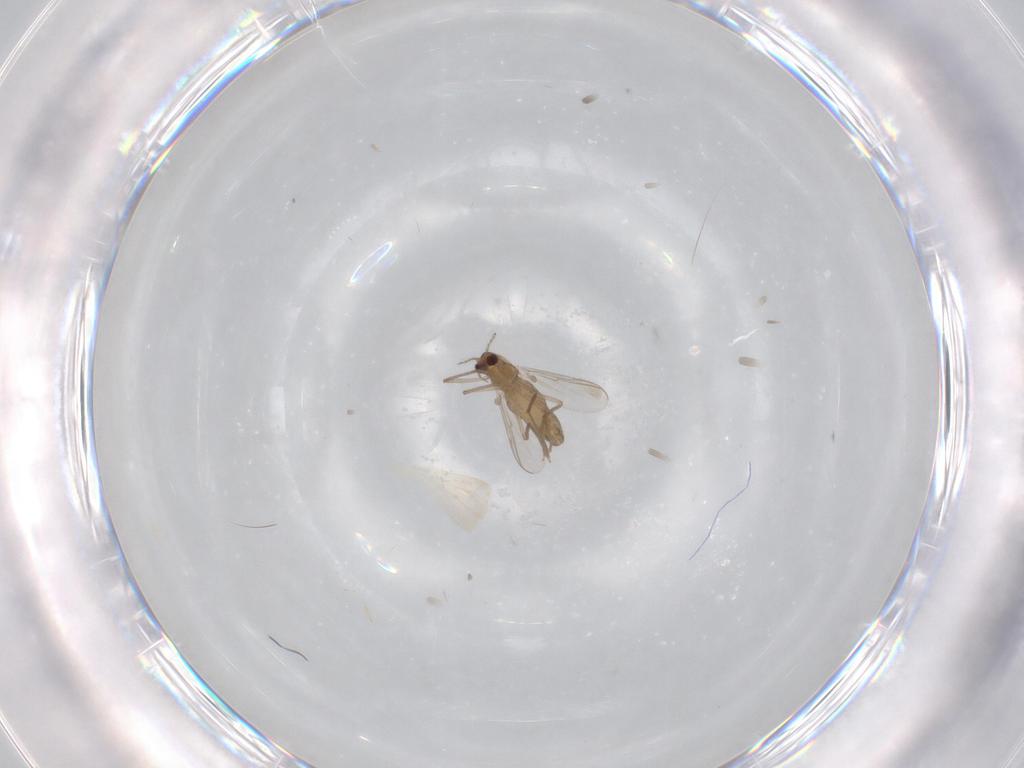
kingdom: Animalia
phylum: Arthropoda
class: Insecta
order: Diptera
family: Chironomidae
